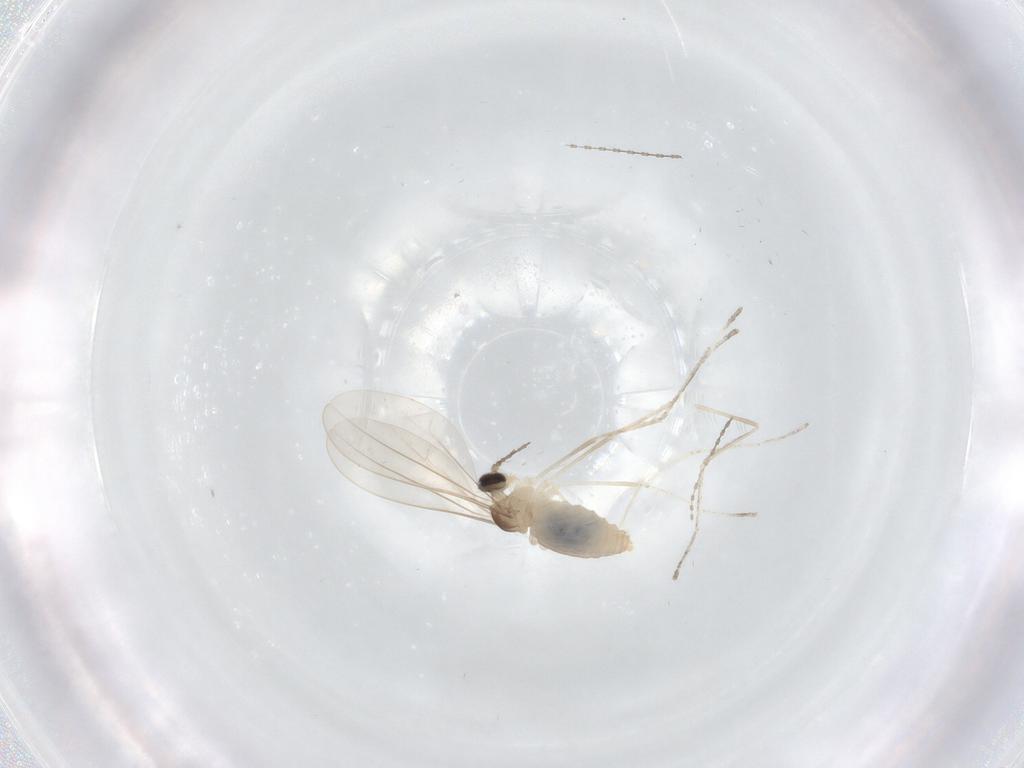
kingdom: Animalia
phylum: Arthropoda
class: Insecta
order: Diptera
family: Cecidomyiidae
